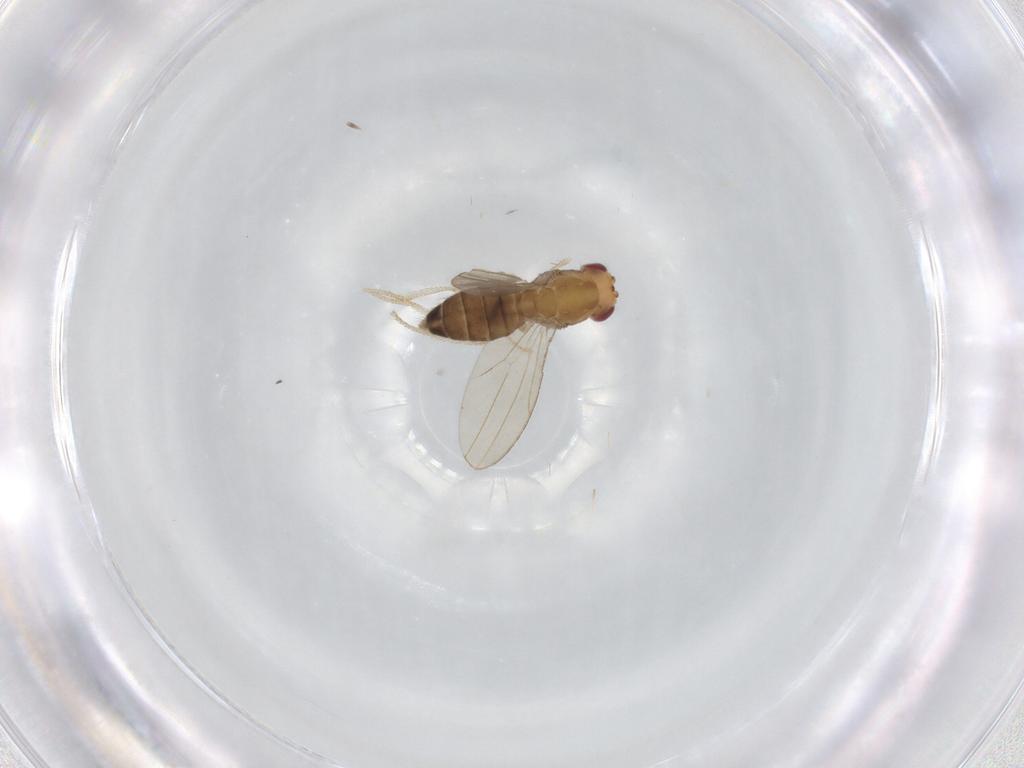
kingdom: Animalia
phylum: Arthropoda
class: Insecta
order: Diptera
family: Drosophilidae
